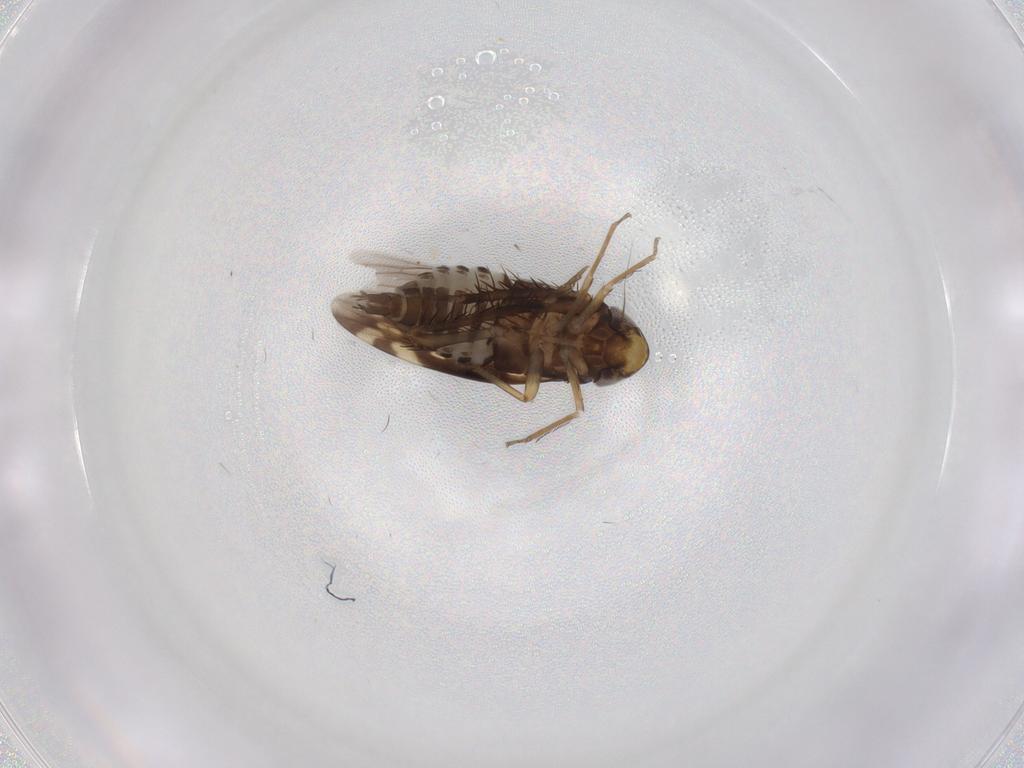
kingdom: Animalia
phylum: Arthropoda
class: Insecta
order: Hemiptera
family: Cicadellidae
